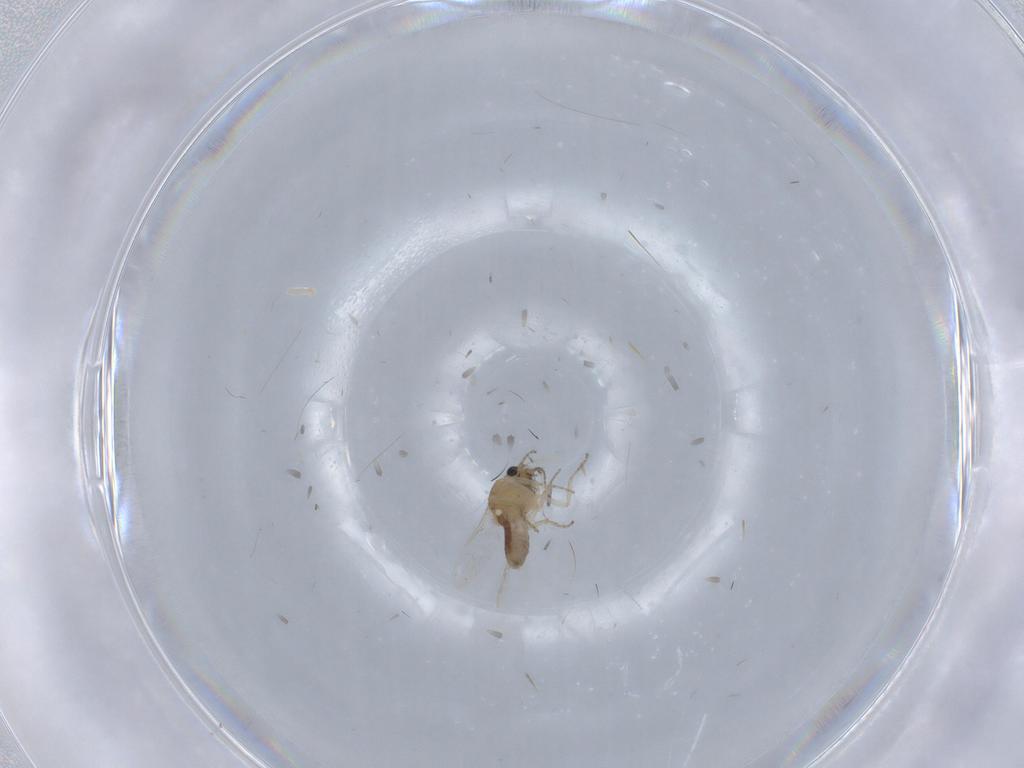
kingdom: Animalia
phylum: Arthropoda
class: Insecta
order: Diptera
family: Ceratopogonidae
